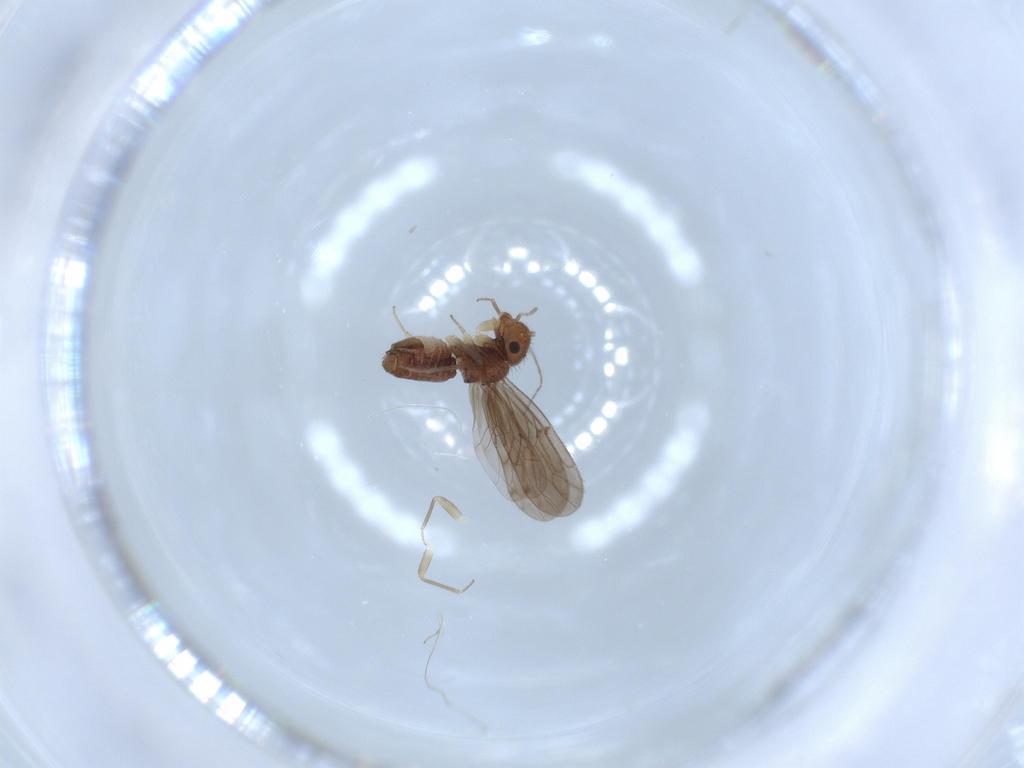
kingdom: Animalia
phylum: Arthropoda
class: Insecta
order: Psocodea
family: Ectopsocidae
